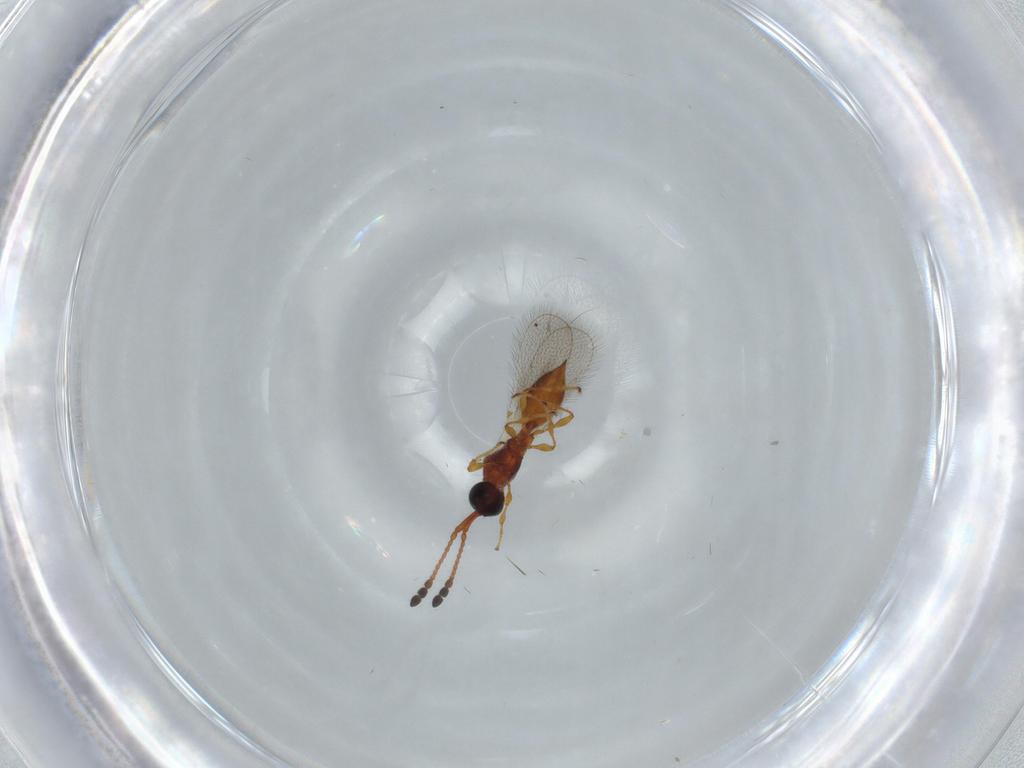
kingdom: Animalia
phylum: Arthropoda
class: Insecta
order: Hymenoptera
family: Diapriidae
